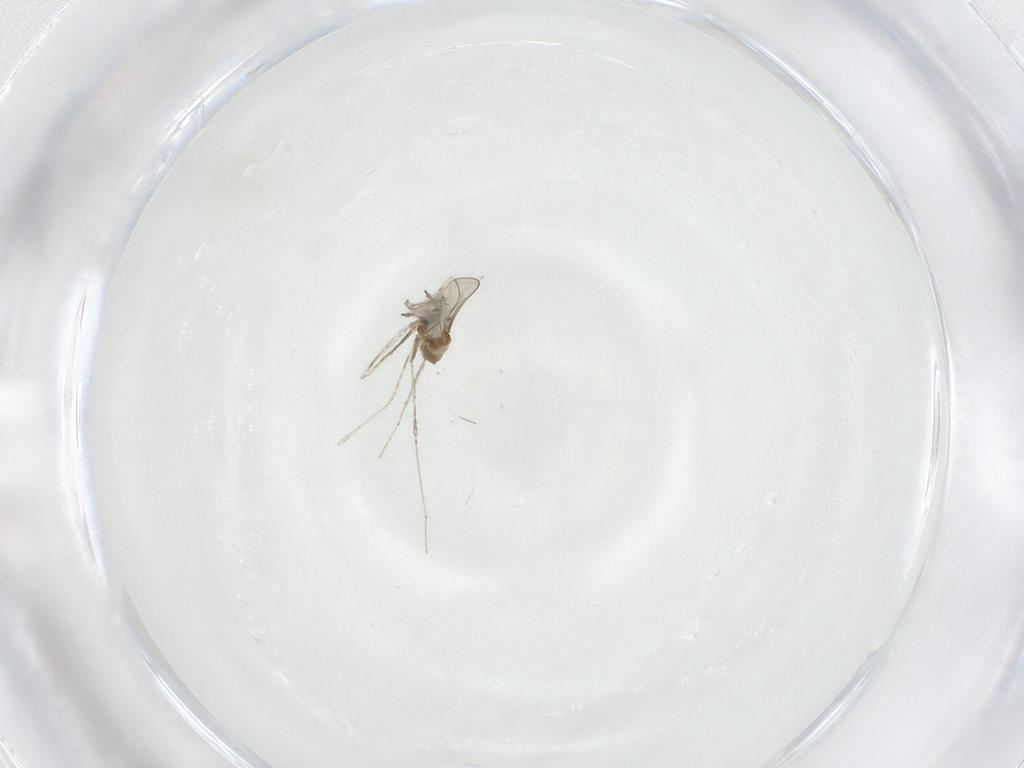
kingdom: Animalia
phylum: Arthropoda
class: Insecta
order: Diptera
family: Cecidomyiidae
